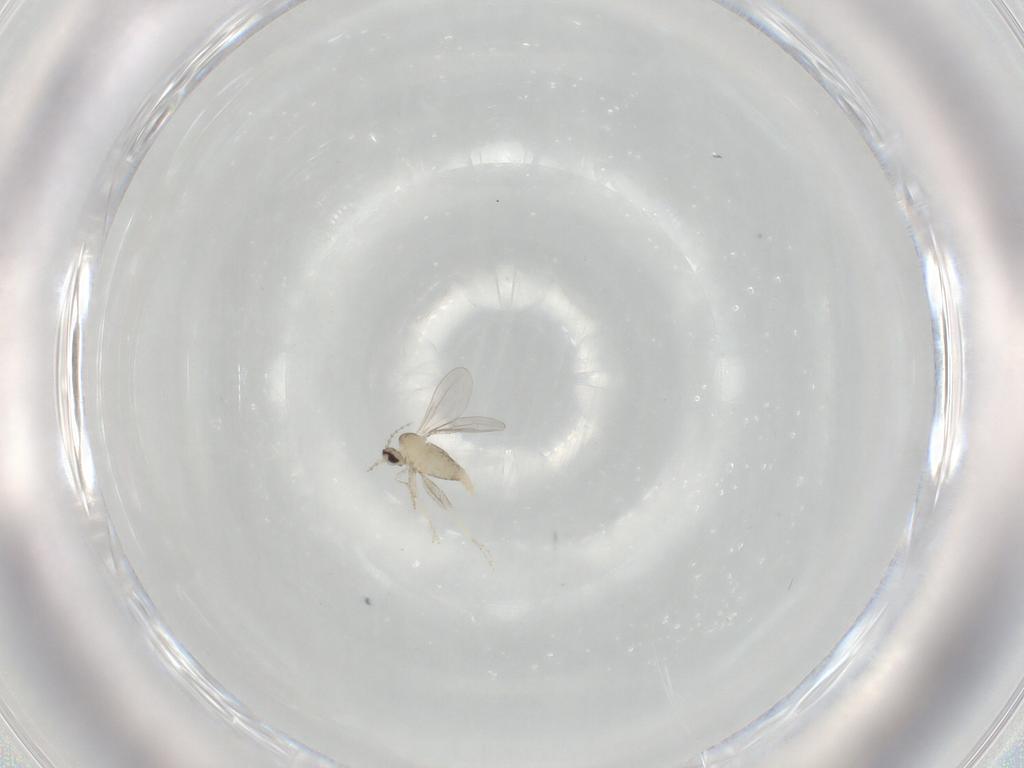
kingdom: Animalia
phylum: Arthropoda
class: Insecta
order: Diptera
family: Cecidomyiidae
